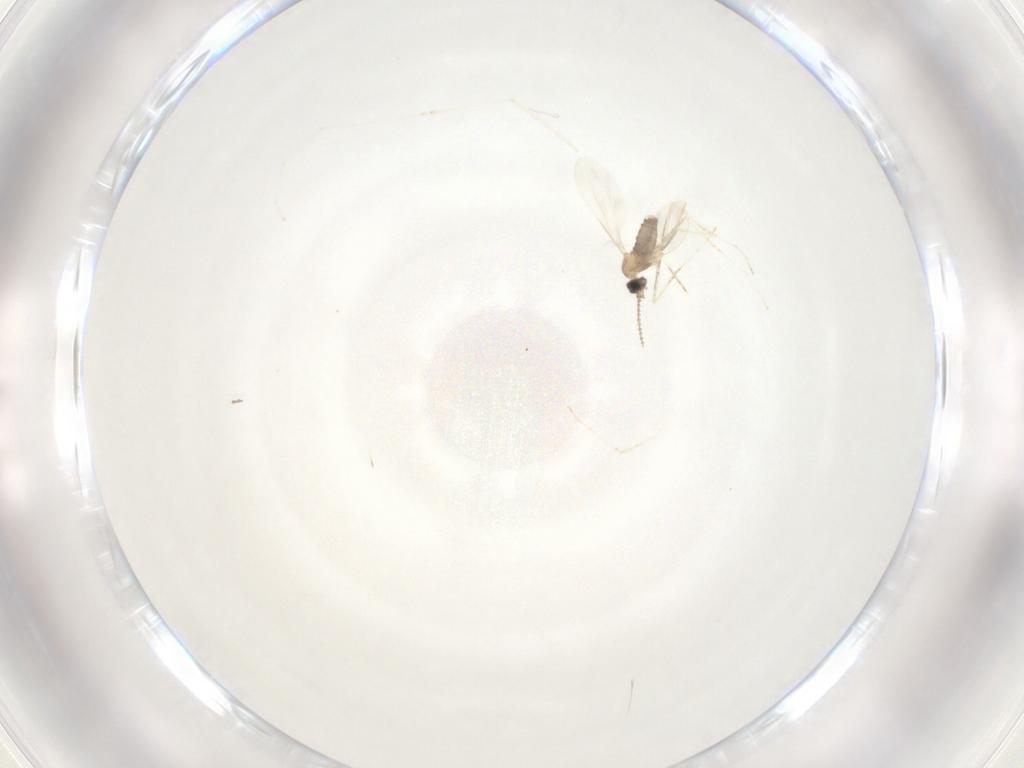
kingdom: Animalia
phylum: Arthropoda
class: Insecta
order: Diptera
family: Cecidomyiidae
